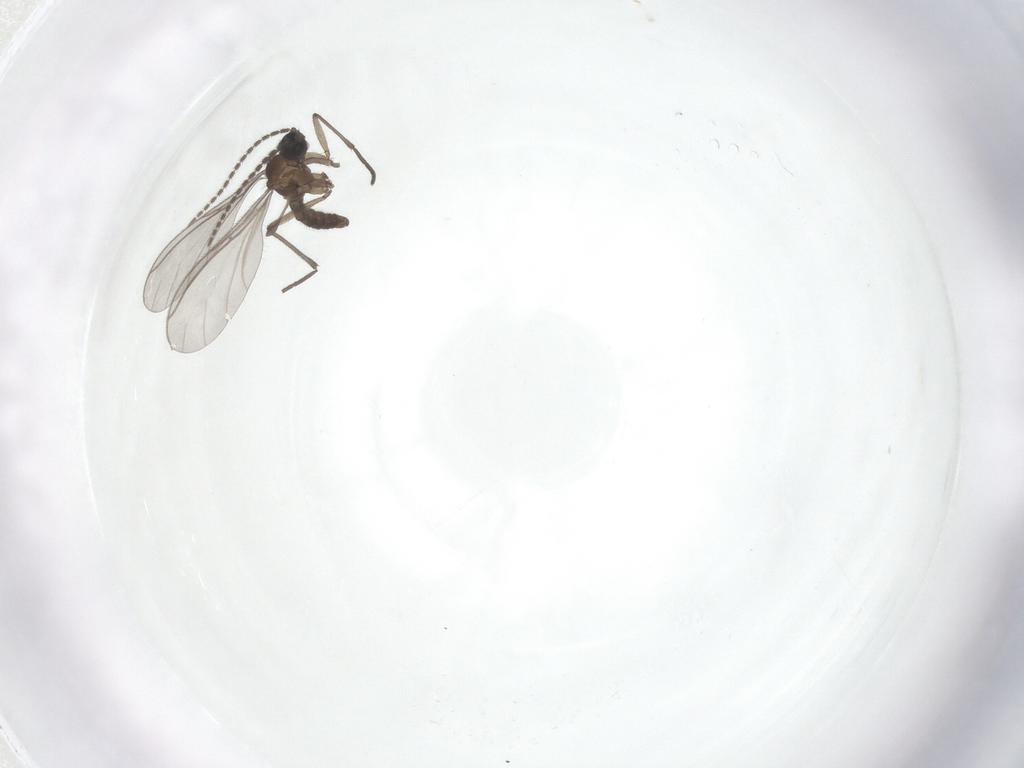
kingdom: Animalia
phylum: Arthropoda
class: Insecta
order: Diptera
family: Sciaridae
